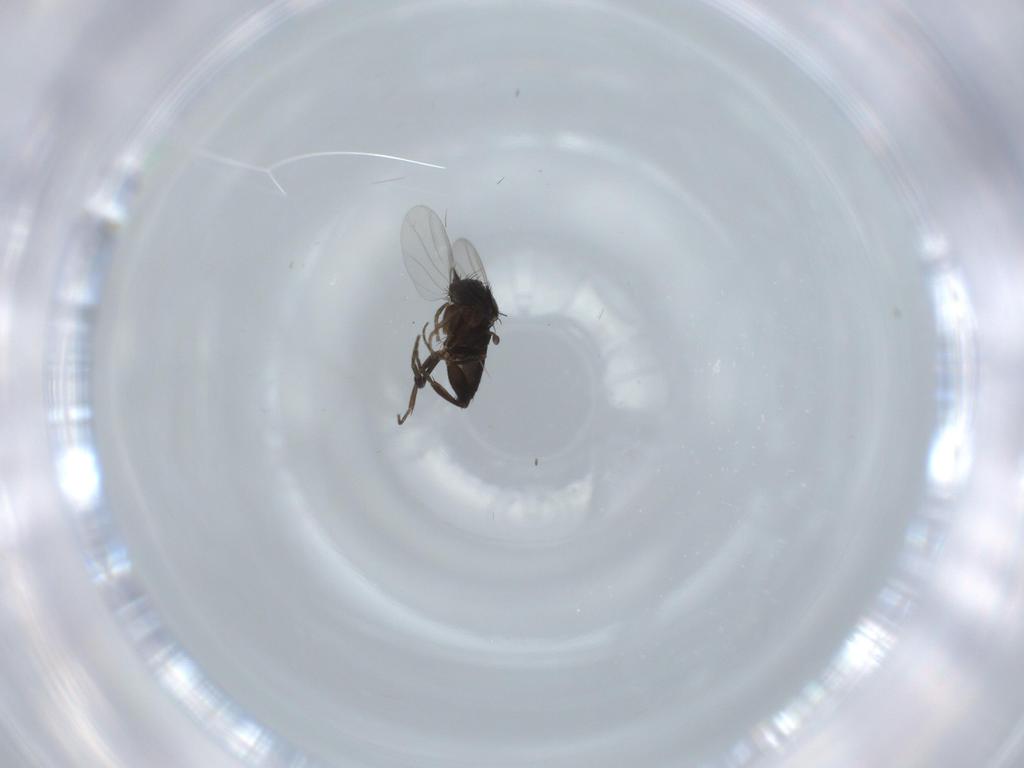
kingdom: Animalia
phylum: Arthropoda
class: Insecta
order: Diptera
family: Phoridae
